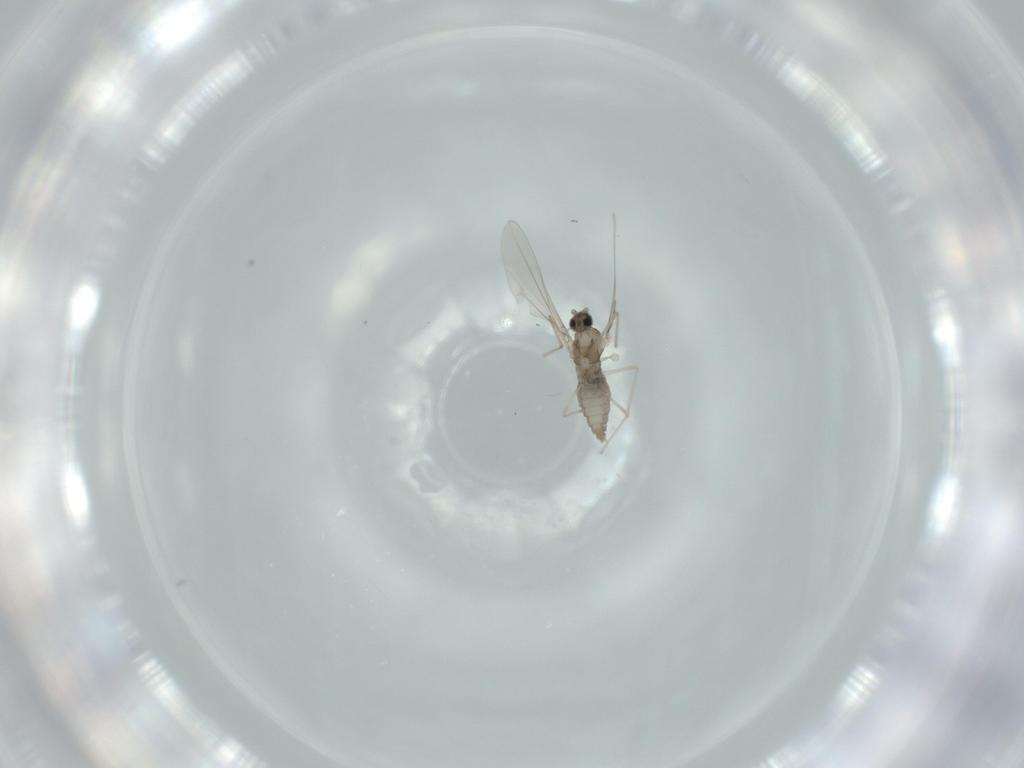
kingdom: Animalia
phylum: Arthropoda
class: Insecta
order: Diptera
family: Cecidomyiidae
